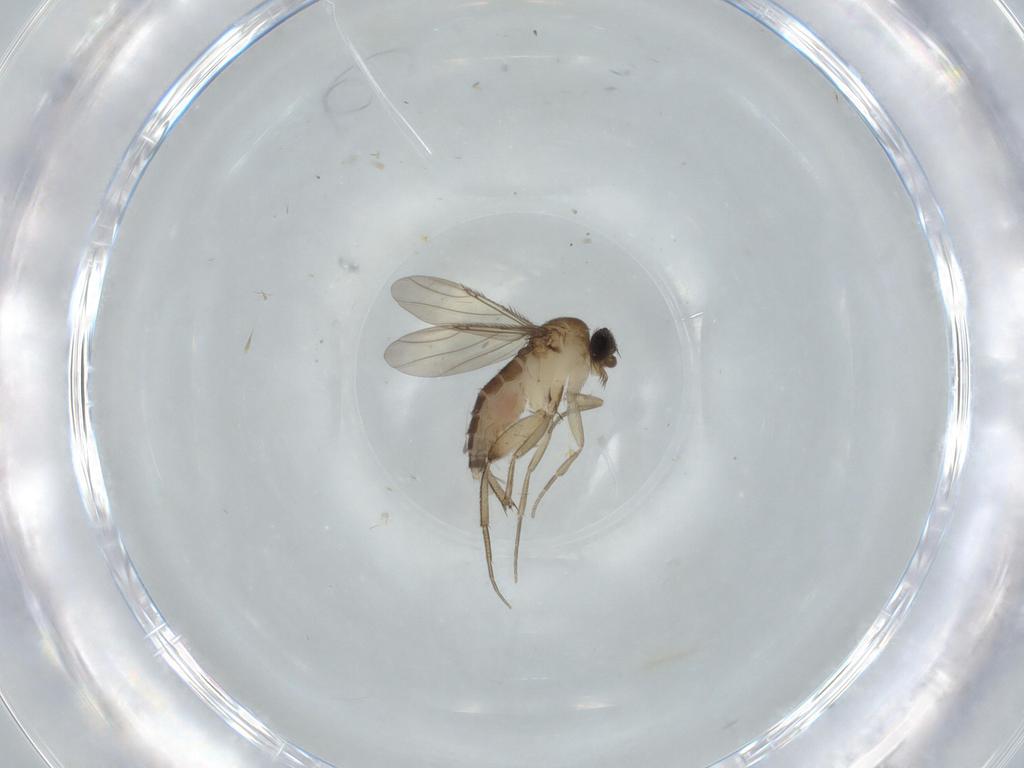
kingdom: Animalia
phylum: Arthropoda
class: Insecta
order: Diptera
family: Phoridae
